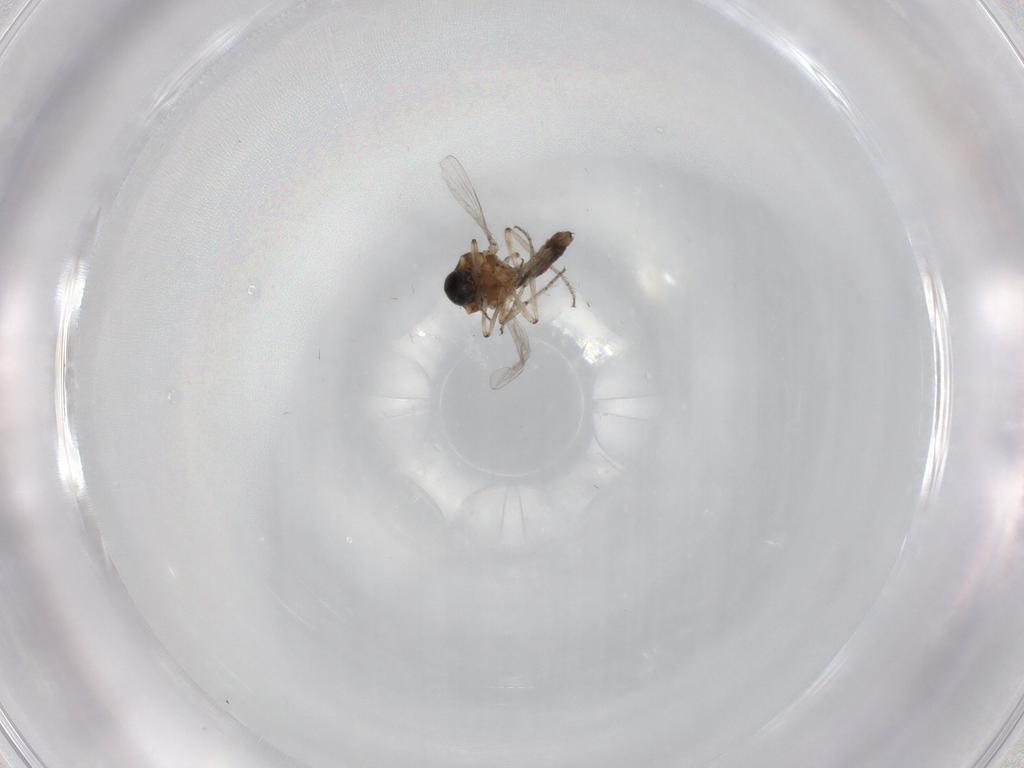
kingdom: Animalia
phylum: Arthropoda
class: Insecta
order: Diptera
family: Ceratopogonidae
